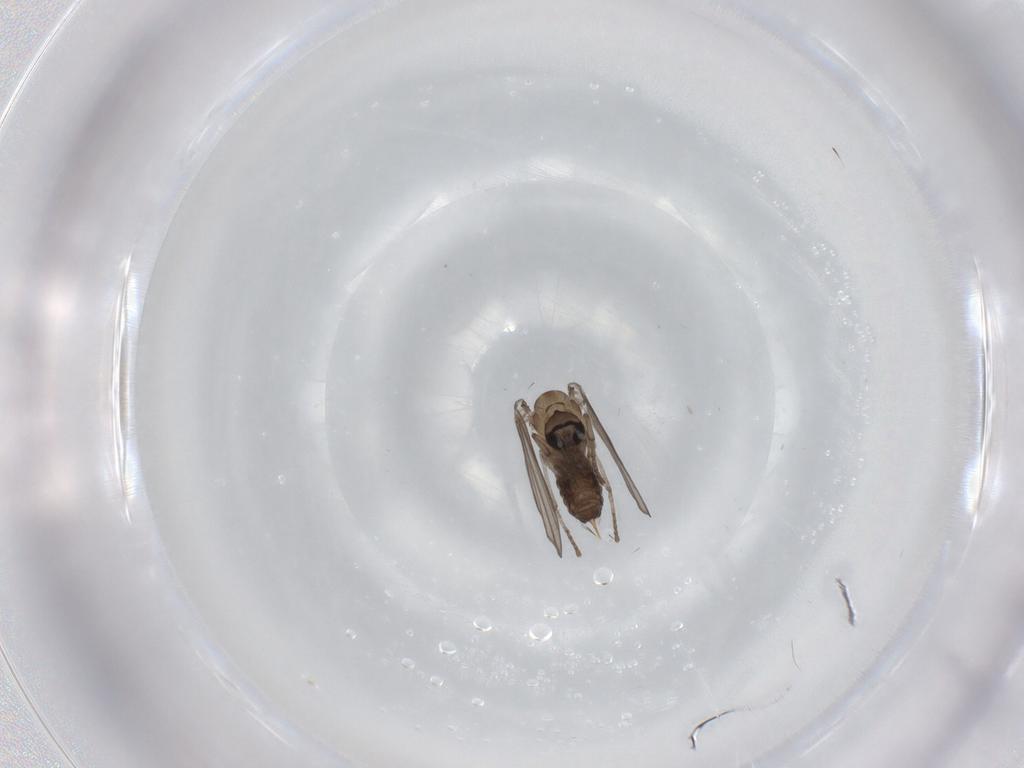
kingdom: Animalia
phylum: Arthropoda
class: Insecta
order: Diptera
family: Psychodidae
